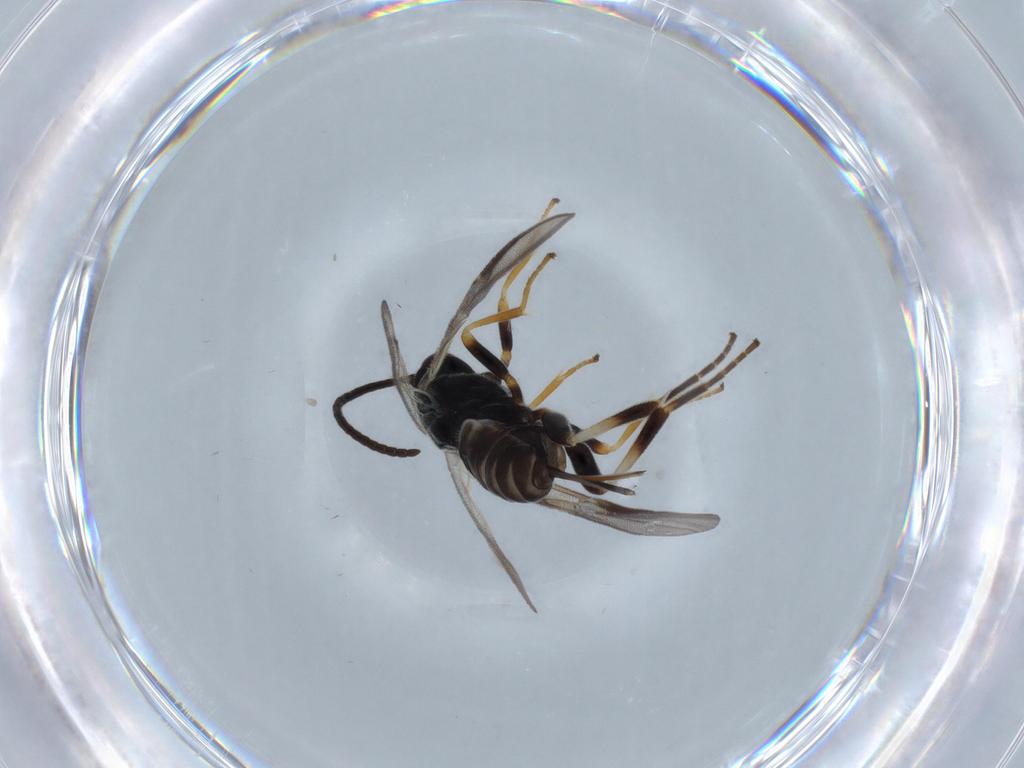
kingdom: Animalia
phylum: Arthropoda
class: Insecta
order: Hymenoptera
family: Braconidae
